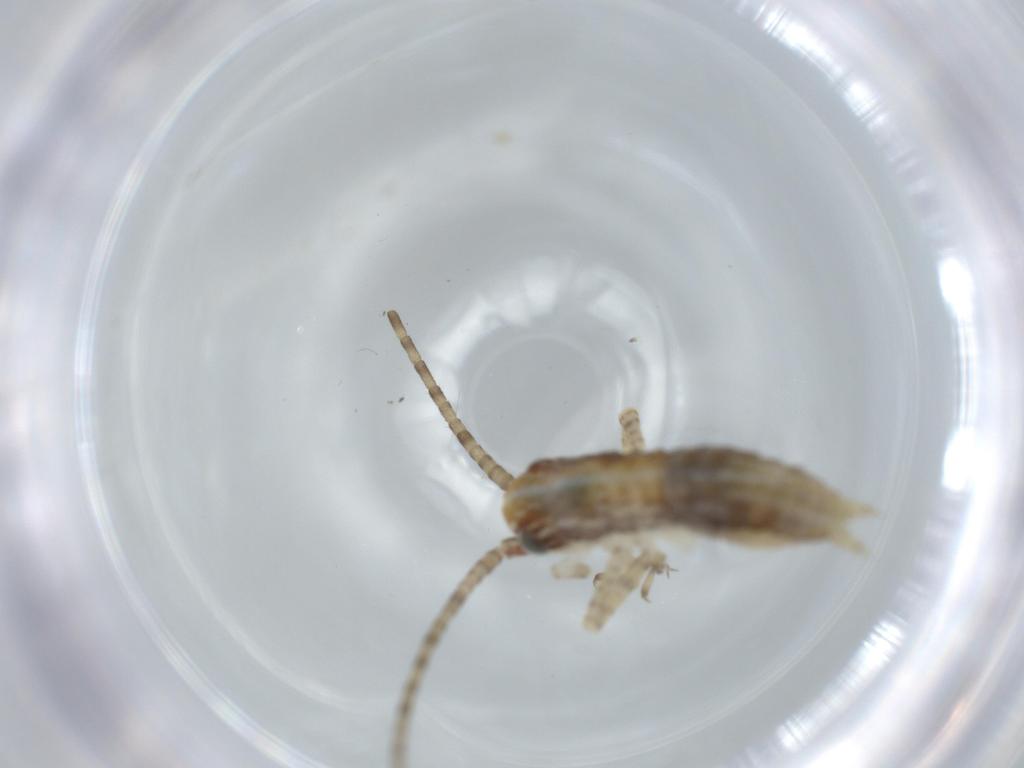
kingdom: Animalia
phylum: Arthropoda
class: Insecta
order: Orthoptera
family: Gryllidae
